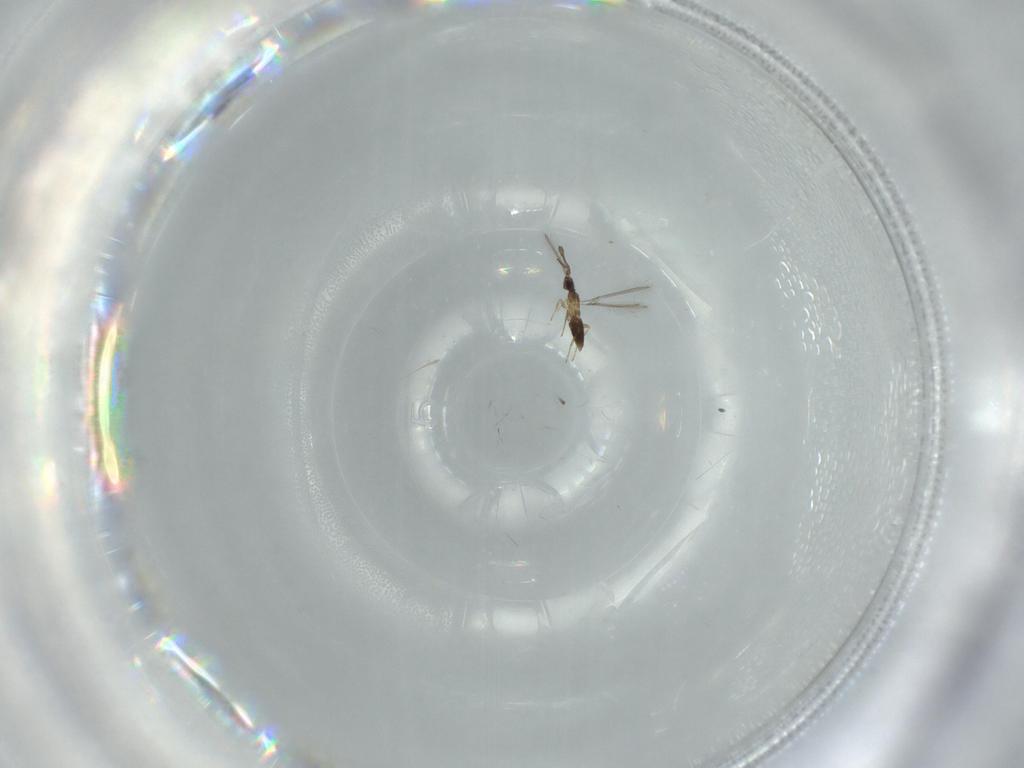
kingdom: Animalia
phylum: Arthropoda
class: Insecta
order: Hymenoptera
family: Mymaridae
